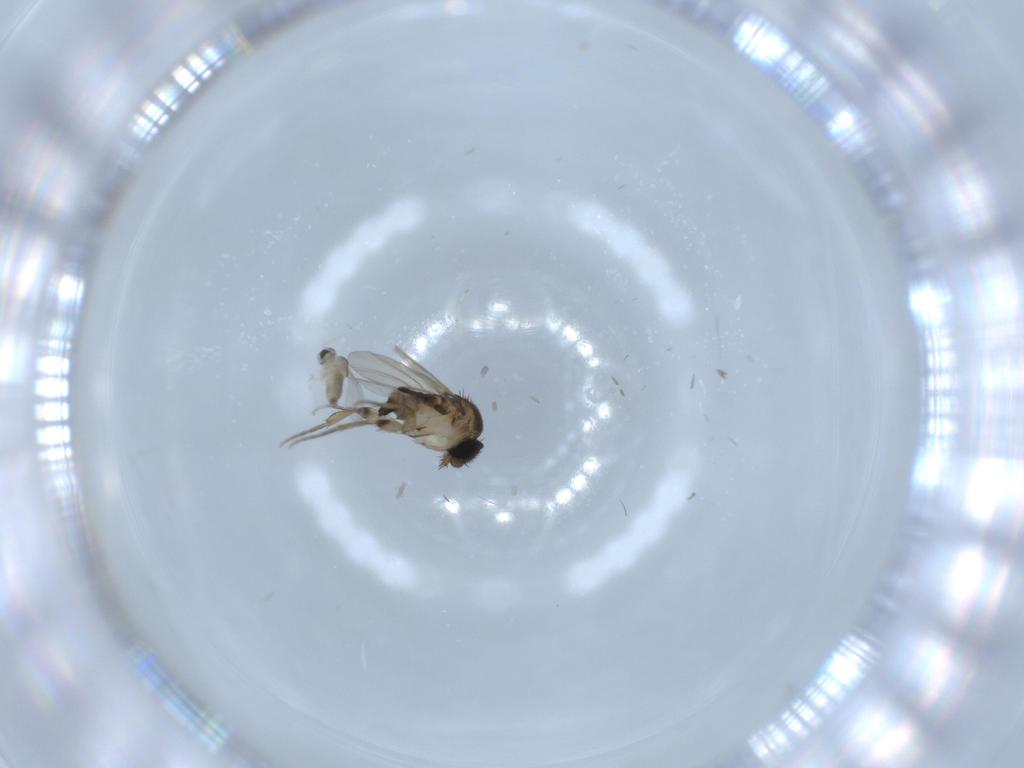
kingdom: Animalia
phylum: Arthropoda
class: Insecta
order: Diptera
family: Phoridae
